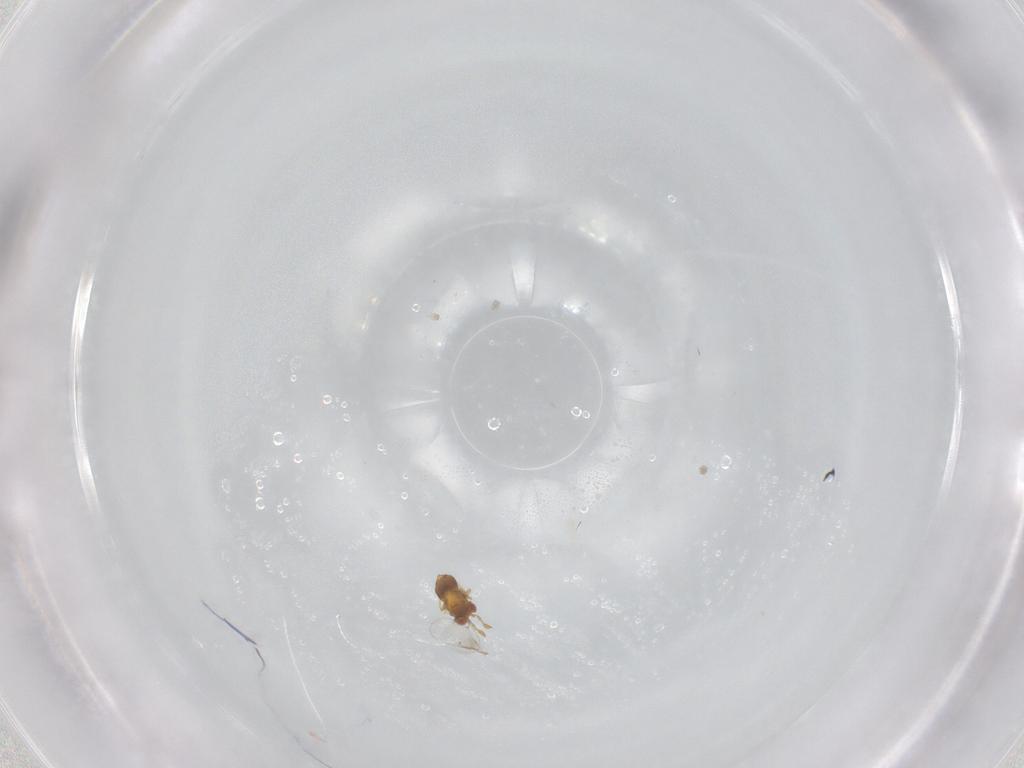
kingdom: Animalia
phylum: Arthropoda
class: Insecta
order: Hymenoptera
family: Trichogrammatidae
